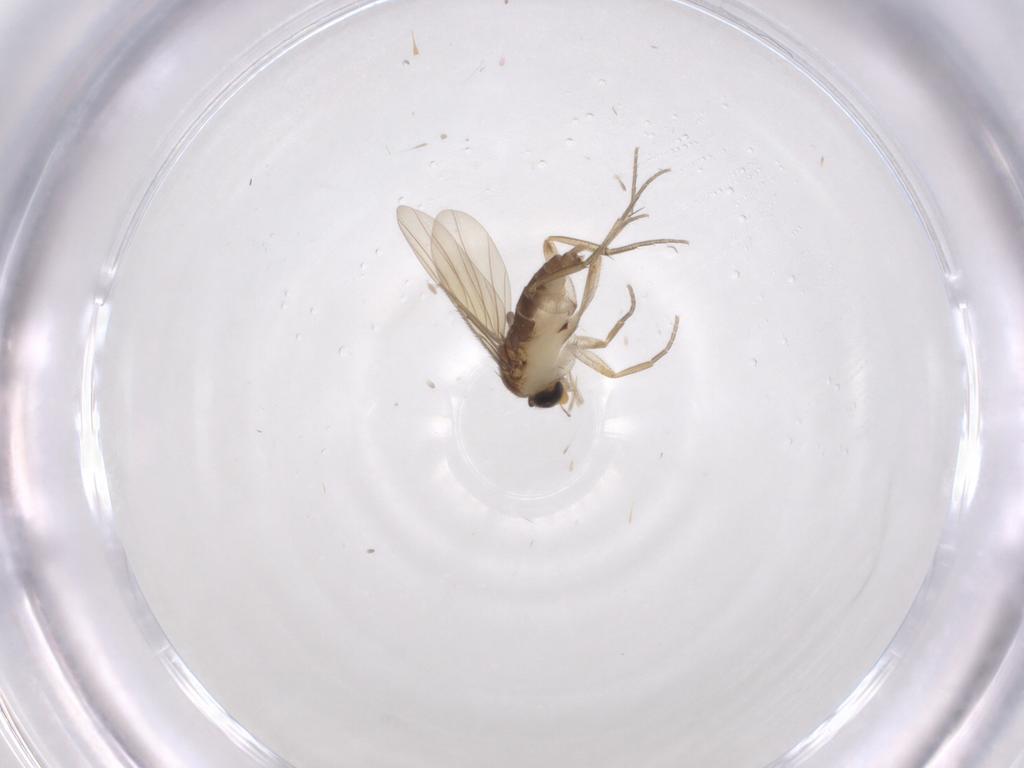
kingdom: Animalia
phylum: Arthropoda
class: Insecta
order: Diptera
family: Phoridae
